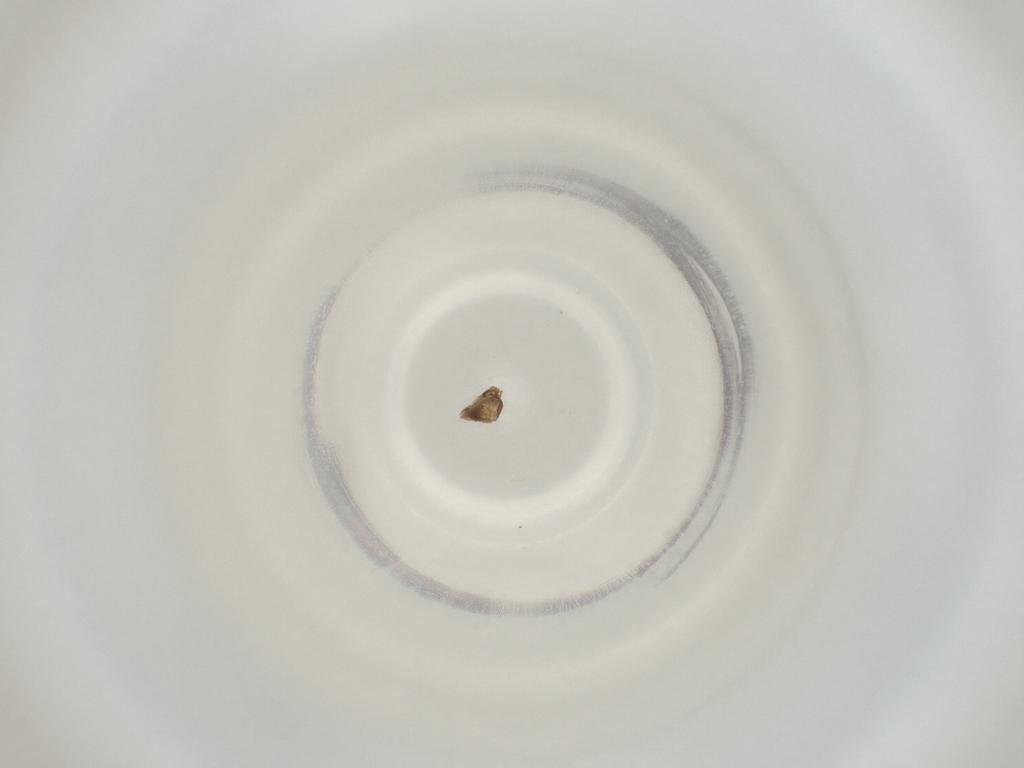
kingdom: Animalia
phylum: Arthropoda
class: Insecta
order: Diptera
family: Cecidomyiidae
